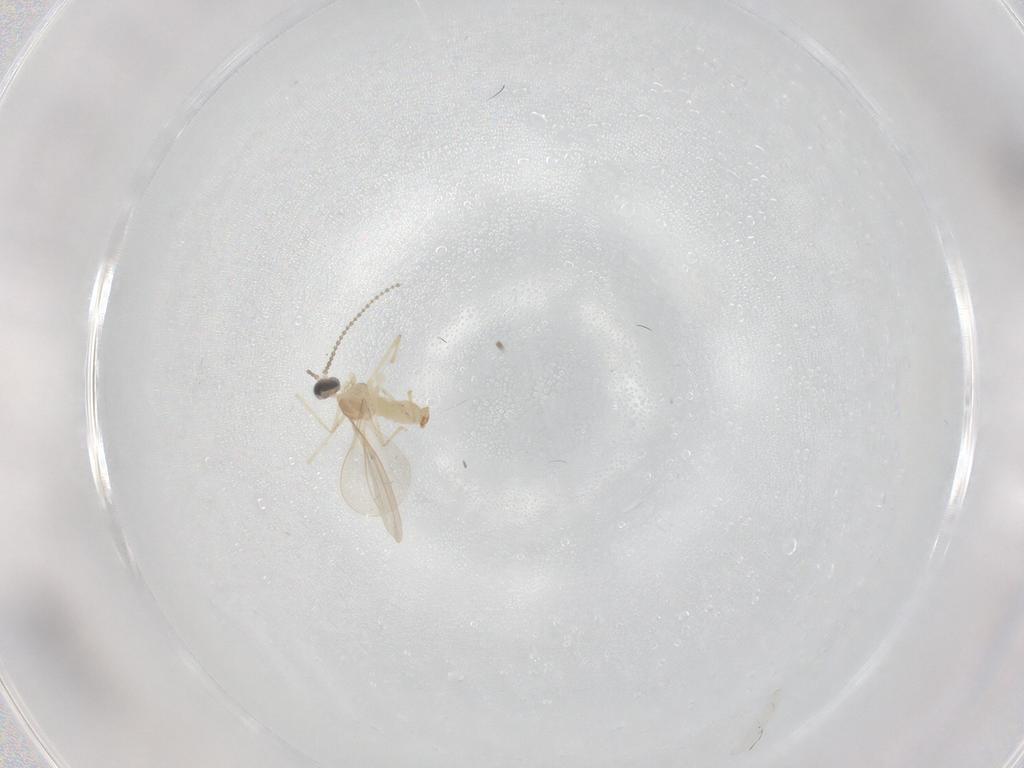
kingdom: Animalia
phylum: Arthropoda
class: Insecta
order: Diptera
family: Cecidomyiidae
